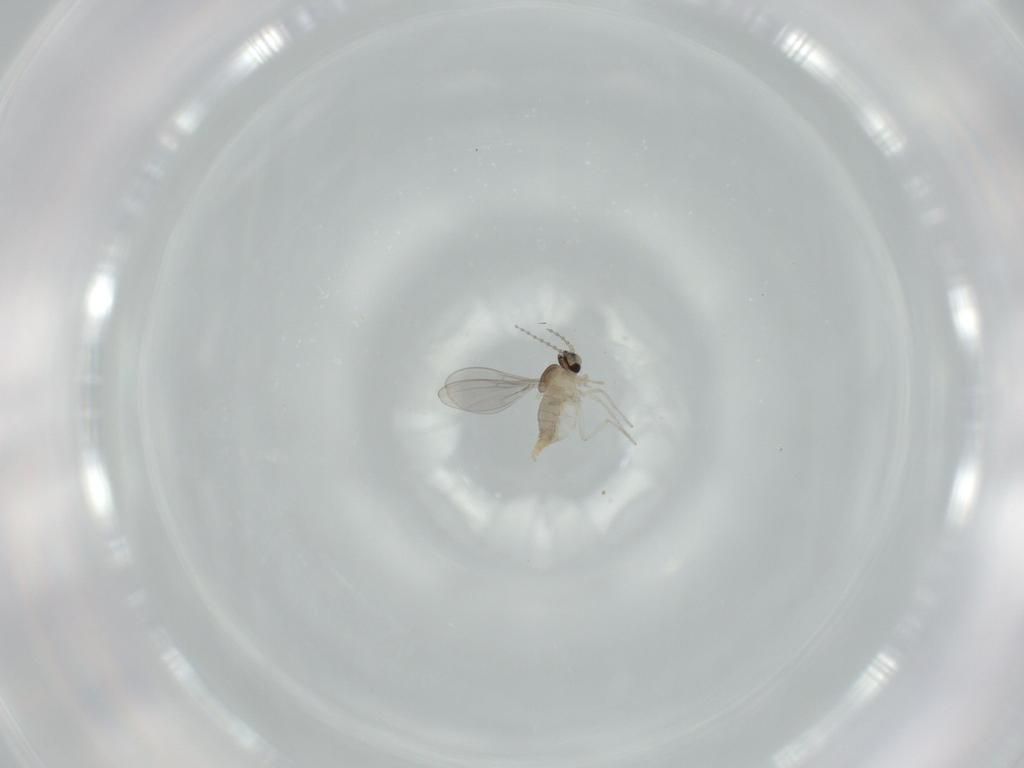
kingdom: Animalia
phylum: Arthropoda
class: Insecta
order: Diptera
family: Cecidomyiidae
